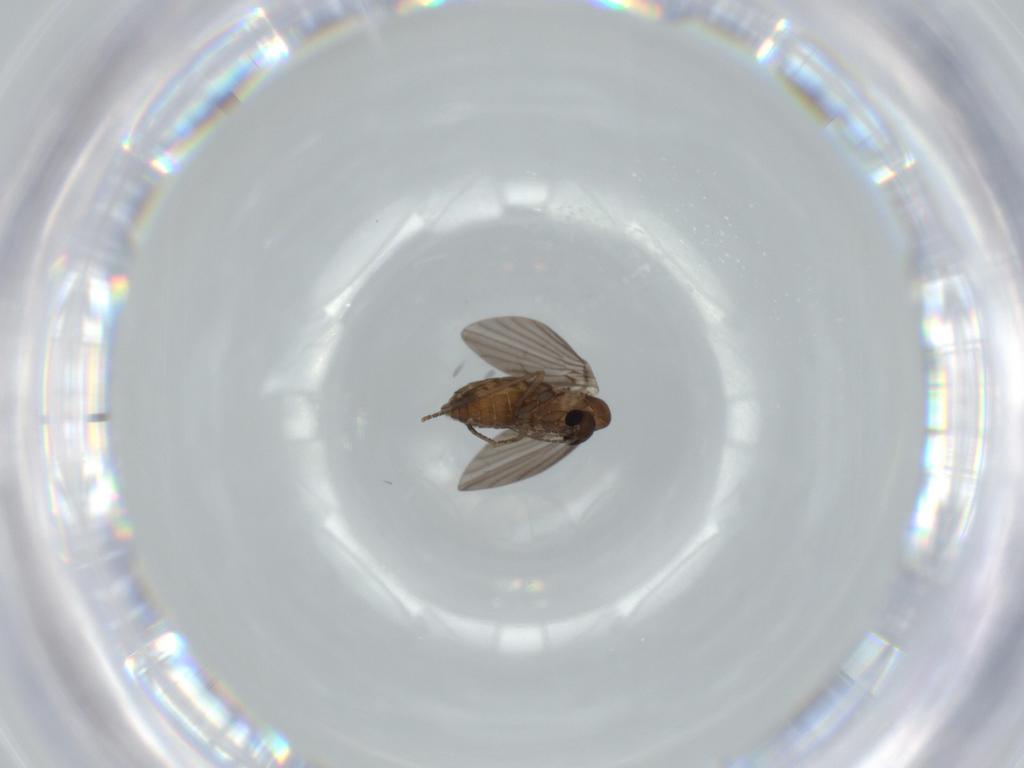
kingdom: Animalia
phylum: Arthropoda
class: Insecta
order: Diptera
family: Psychodidae
